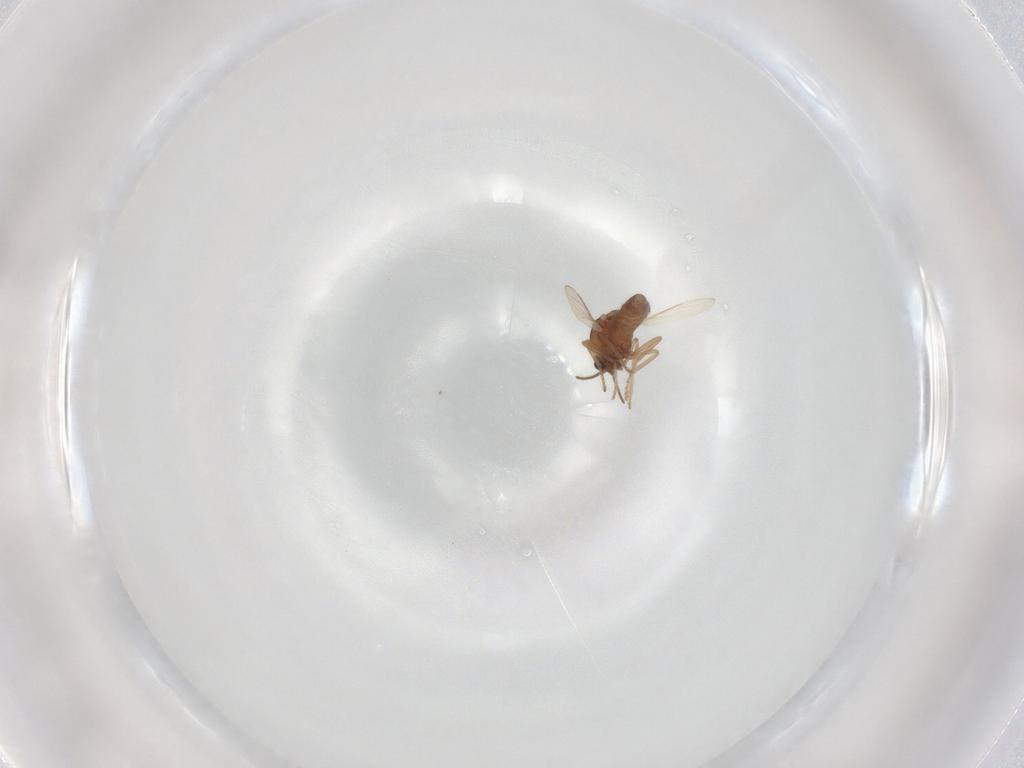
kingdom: Animalia
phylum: Arthropoda
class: Insecta
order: Diptera
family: Ceratopogonidae
